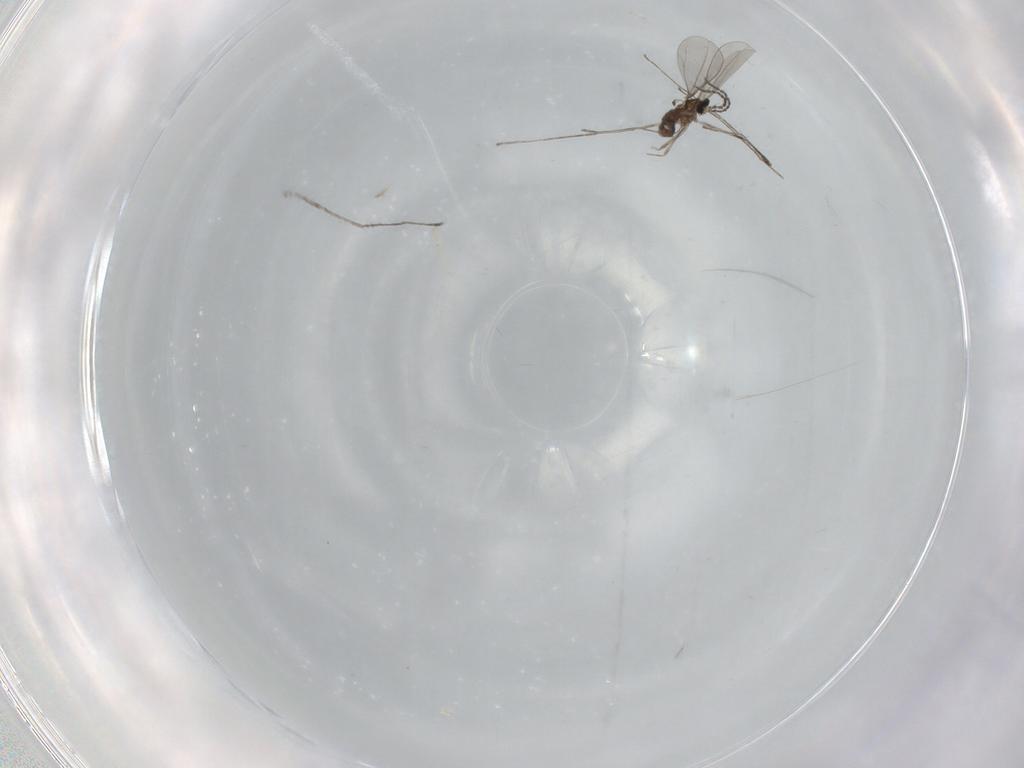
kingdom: Animalia
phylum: Arthropoda
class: Insecta
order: Diptera
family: Cecidomyiidae
